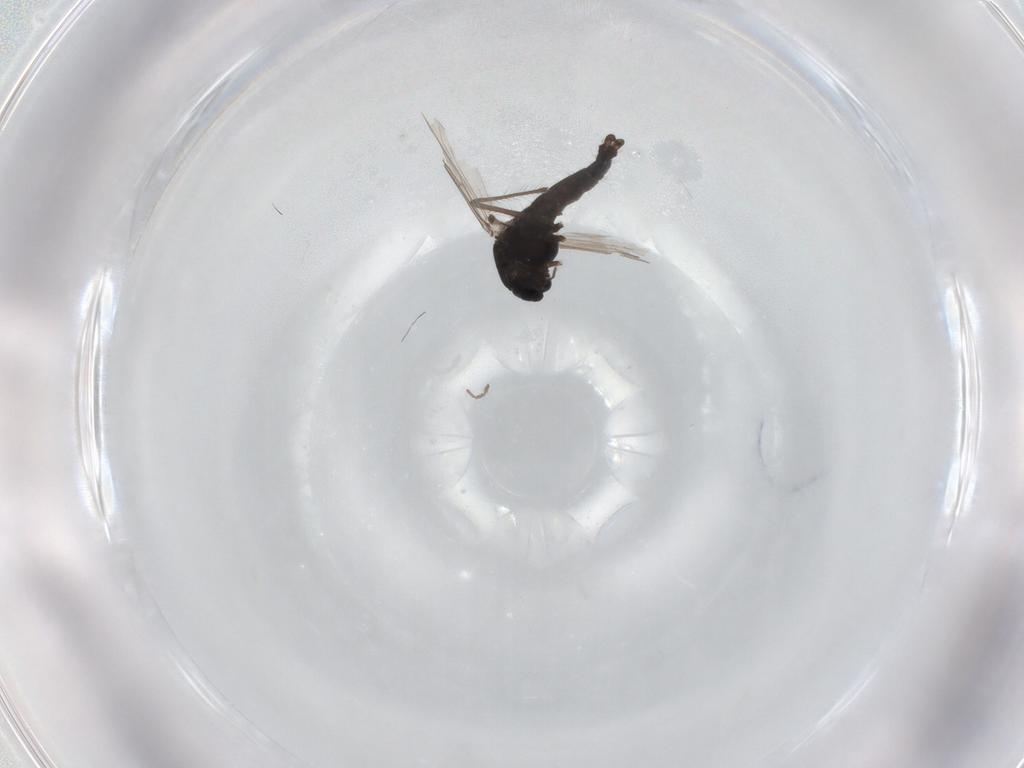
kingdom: Animalia
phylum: Arthropoda
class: Insecta
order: Diptera
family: Chironomidae
